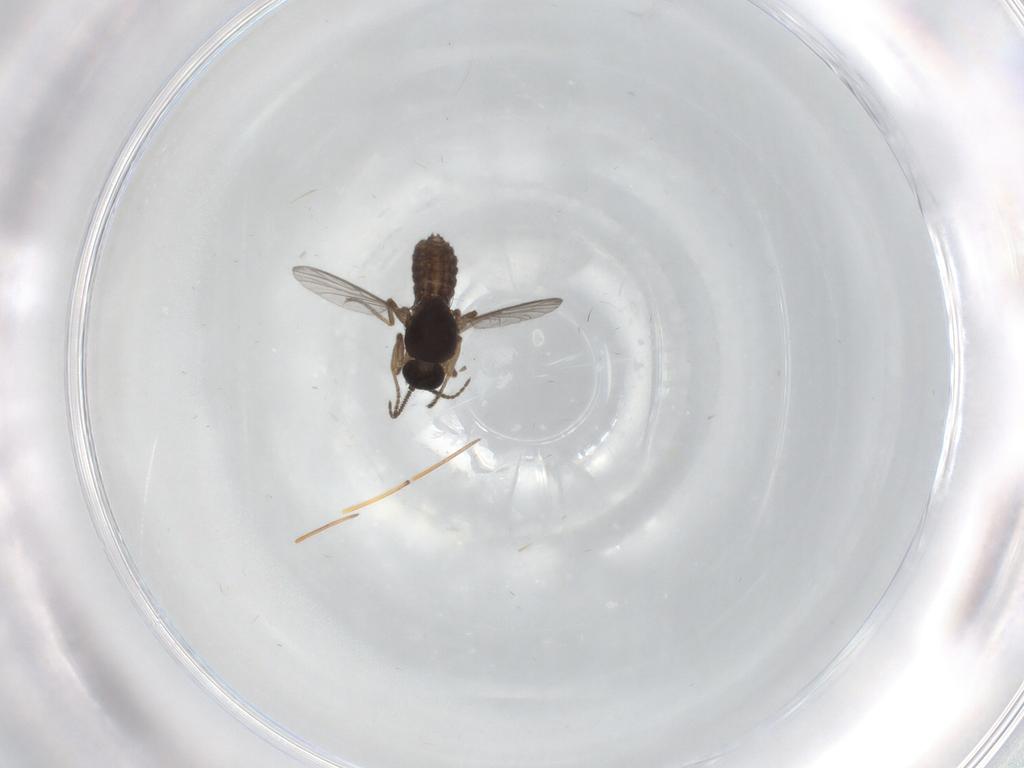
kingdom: Animalia
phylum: Arthropoda
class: Insecta
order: Diptera
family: Ceratopogonidae
